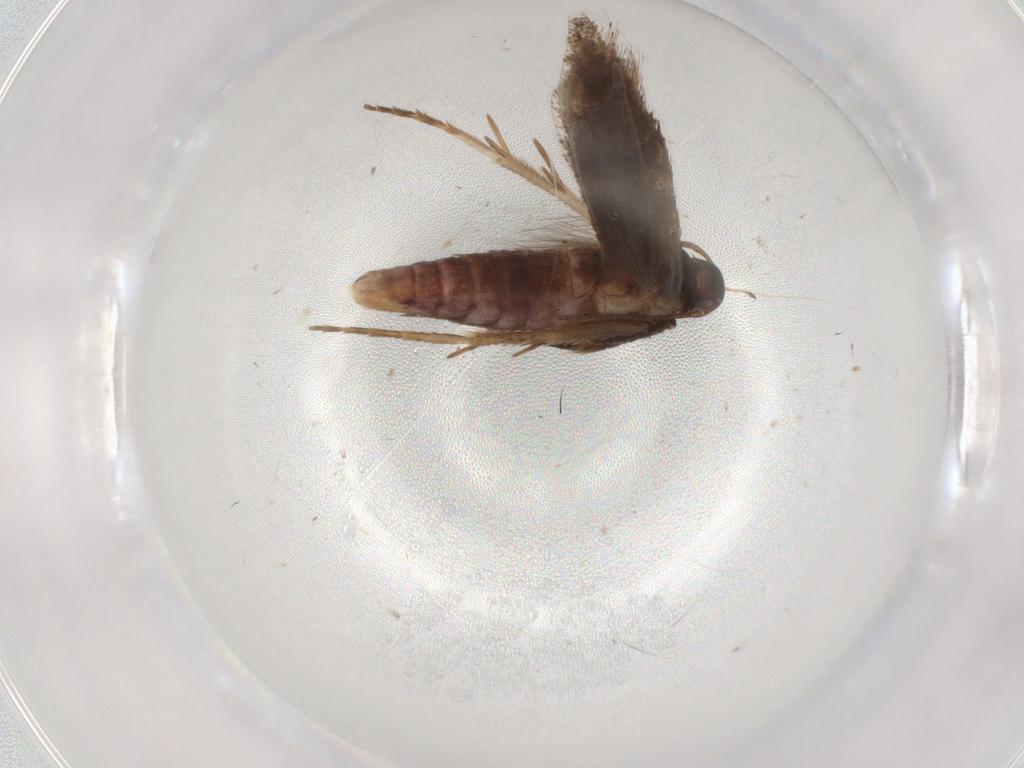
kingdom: Animalia
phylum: Arthropoda
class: Insecta
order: Lepidoptera
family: Gelechiidae
